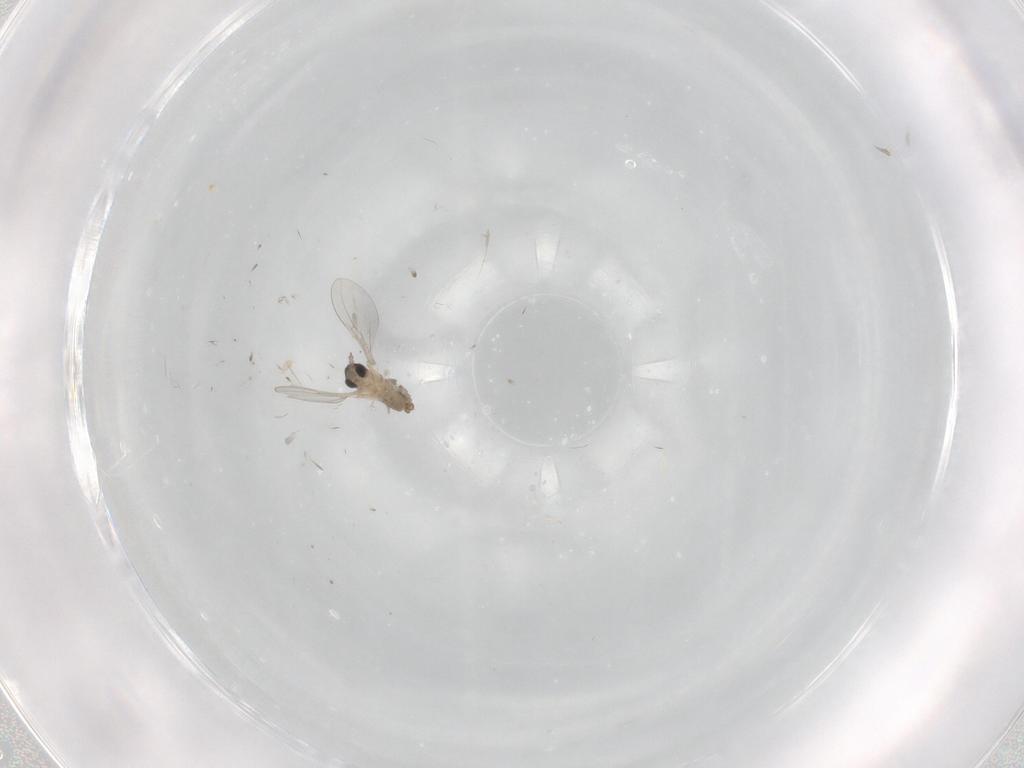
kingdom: Animalia
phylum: Arthropoda
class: Insecta
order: Diptera
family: Cecidomyiidae
